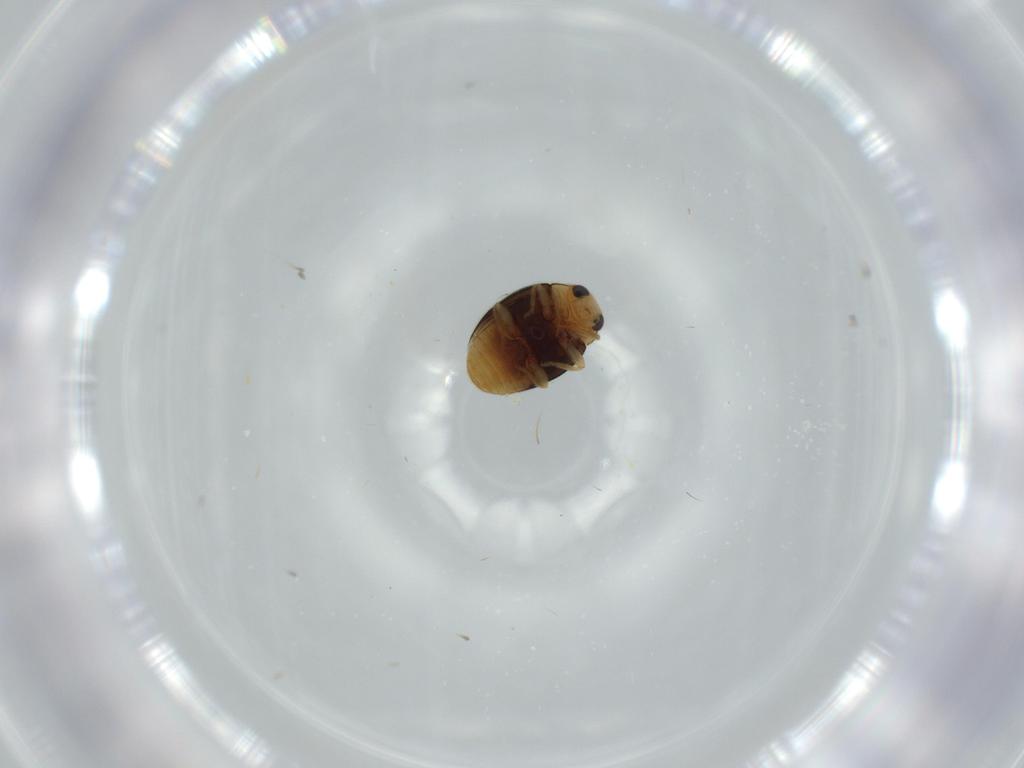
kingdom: Animalia
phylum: Arthropoda
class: Insecta
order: Coleoptera
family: Coccinellidae
